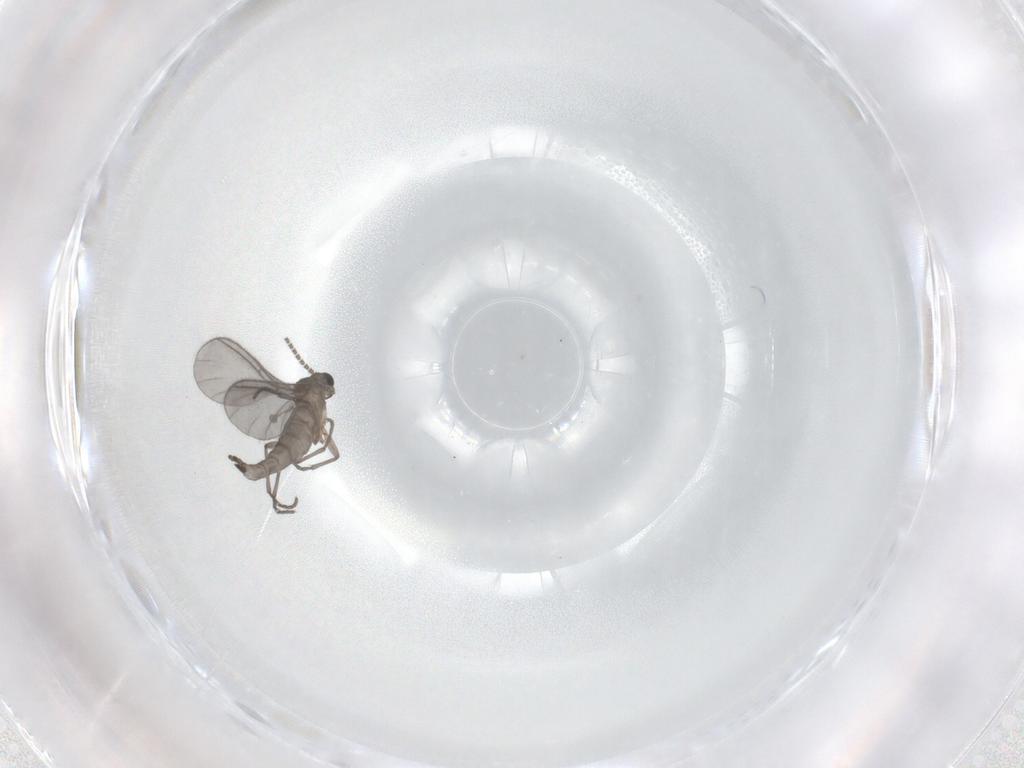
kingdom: Animalia
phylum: Arthropoda
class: Insecta
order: Diptera
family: Sciaridae
